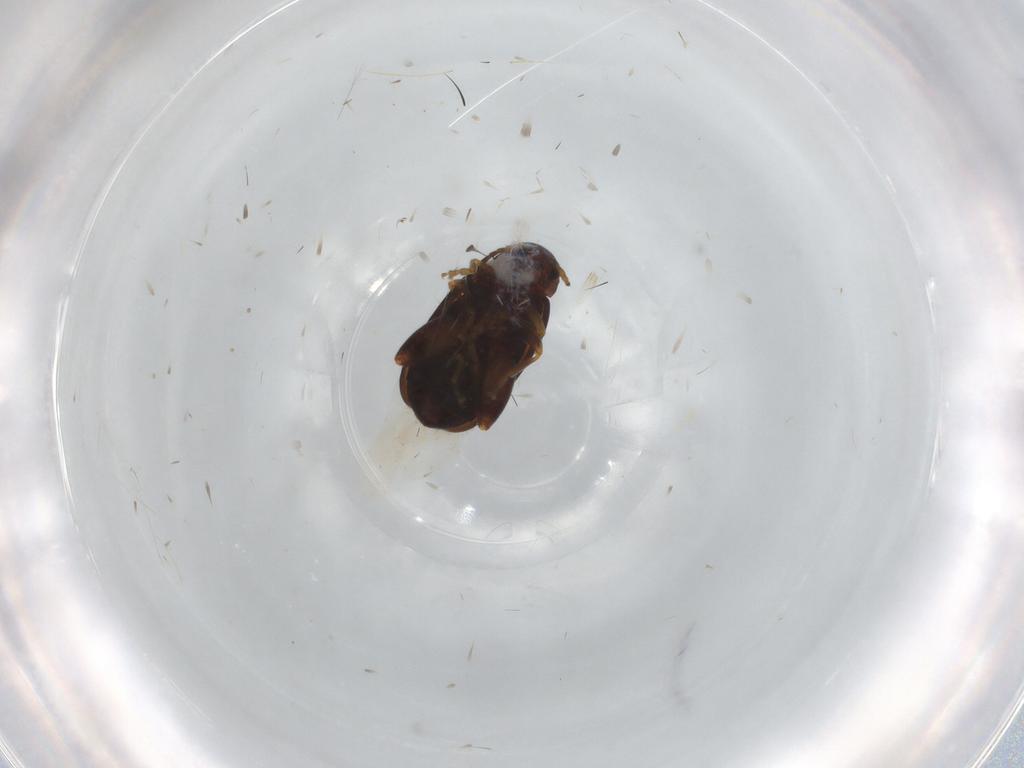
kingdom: Animalia
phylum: Arthropoda
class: Insecta
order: Coleoptera
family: Chrysomelidae
